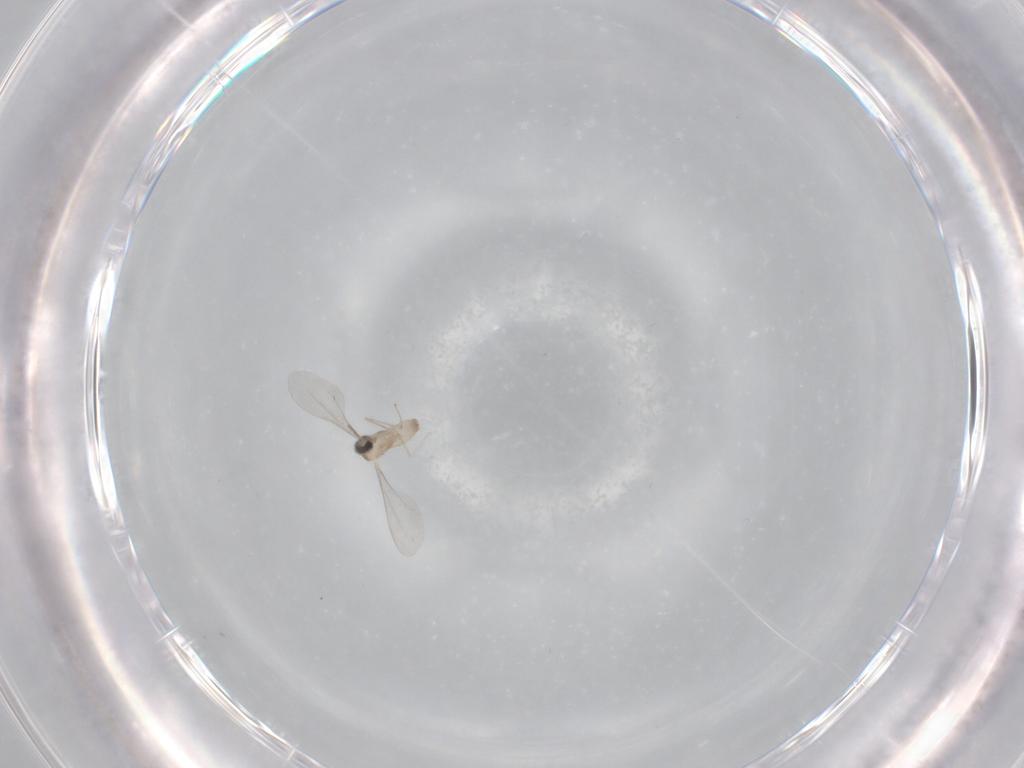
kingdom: Animalia
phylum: Arthropoda
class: Insecta
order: Diptera
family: Cecidomyiidae
